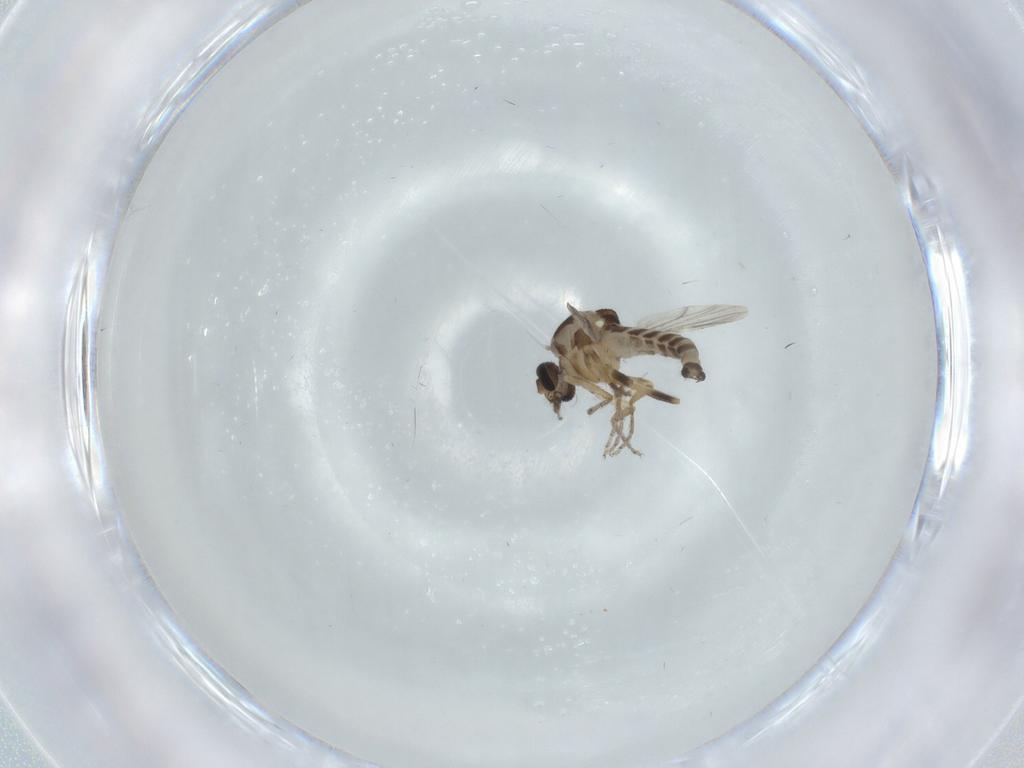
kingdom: Animalia
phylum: Arthropoda
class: Insecta
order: Diptera
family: Ceratopogonidae
